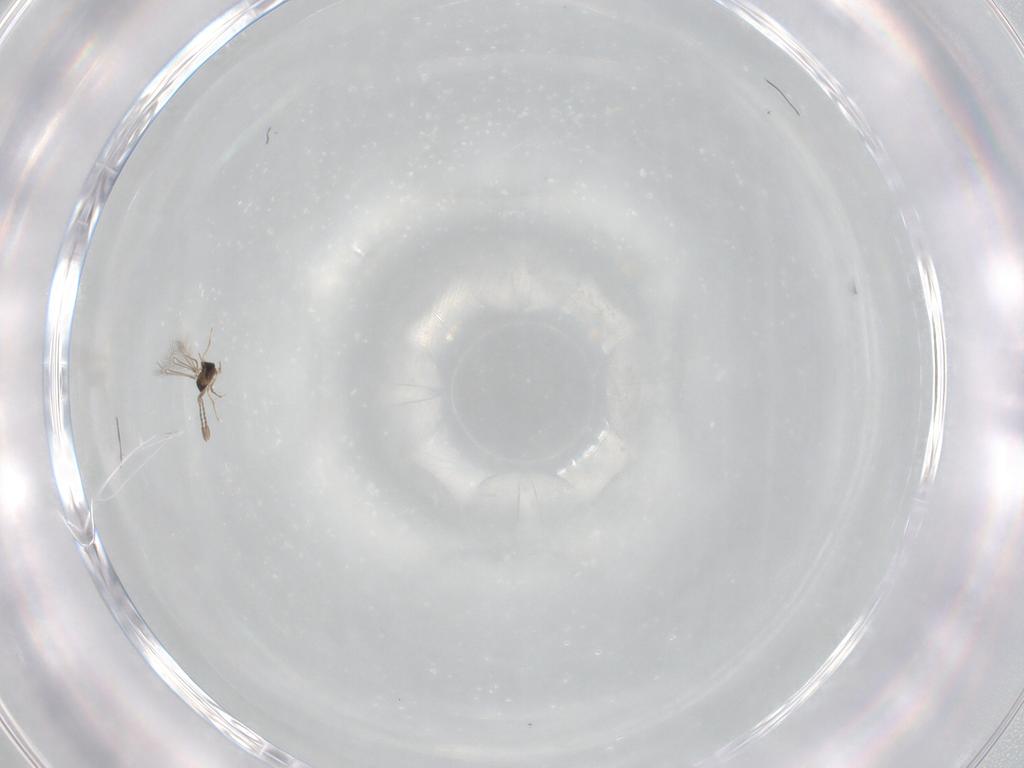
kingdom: Animalia
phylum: Arthropoda
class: Insecta
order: Hymenoptera
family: Mymaridae
